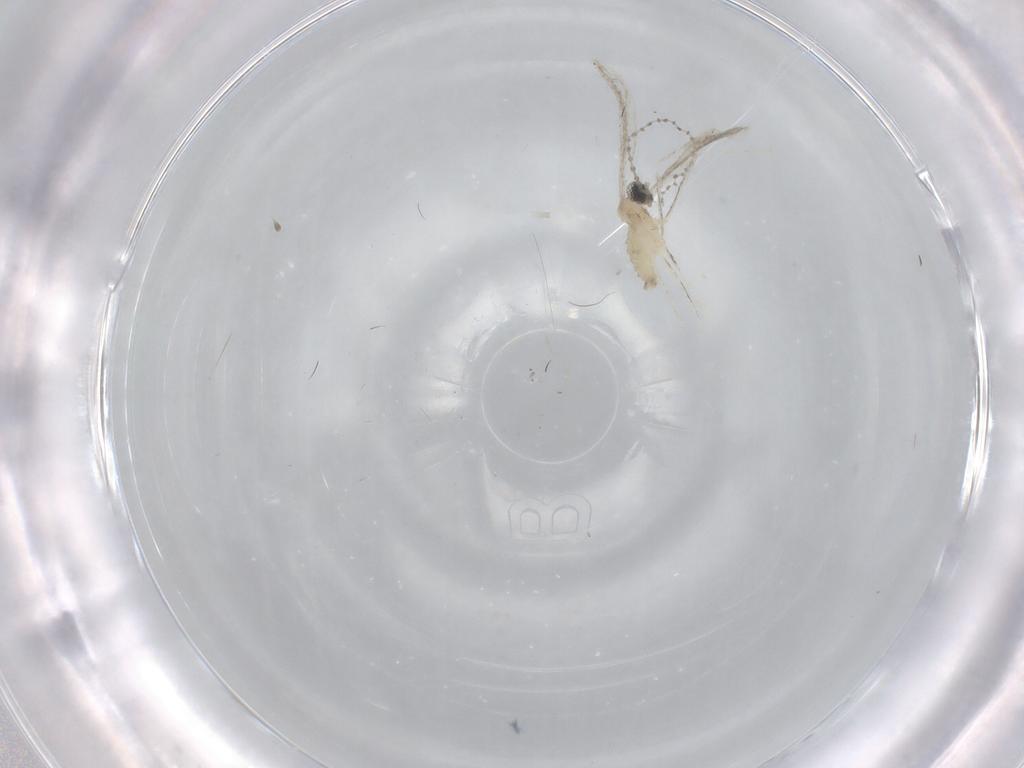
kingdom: Animalia
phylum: Arthropoda
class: Insecta
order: Diptera
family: Cecidomyiidae
